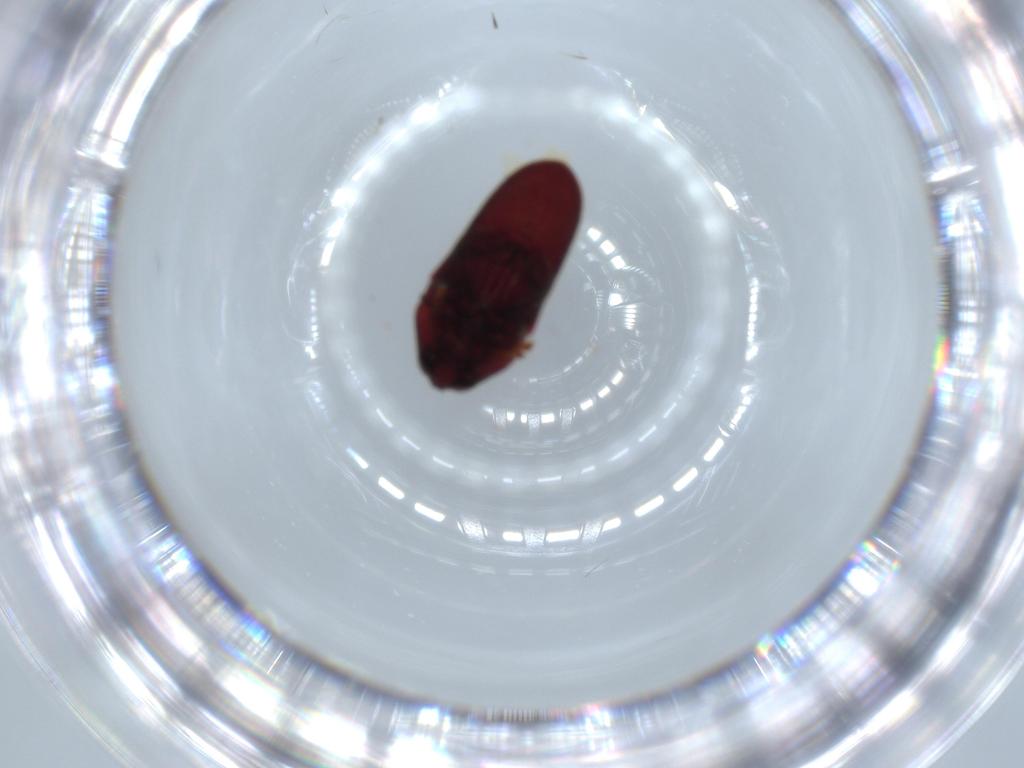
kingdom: Animalia
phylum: Arthropoda
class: Insecta
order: Coleoptera
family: Throscidae
